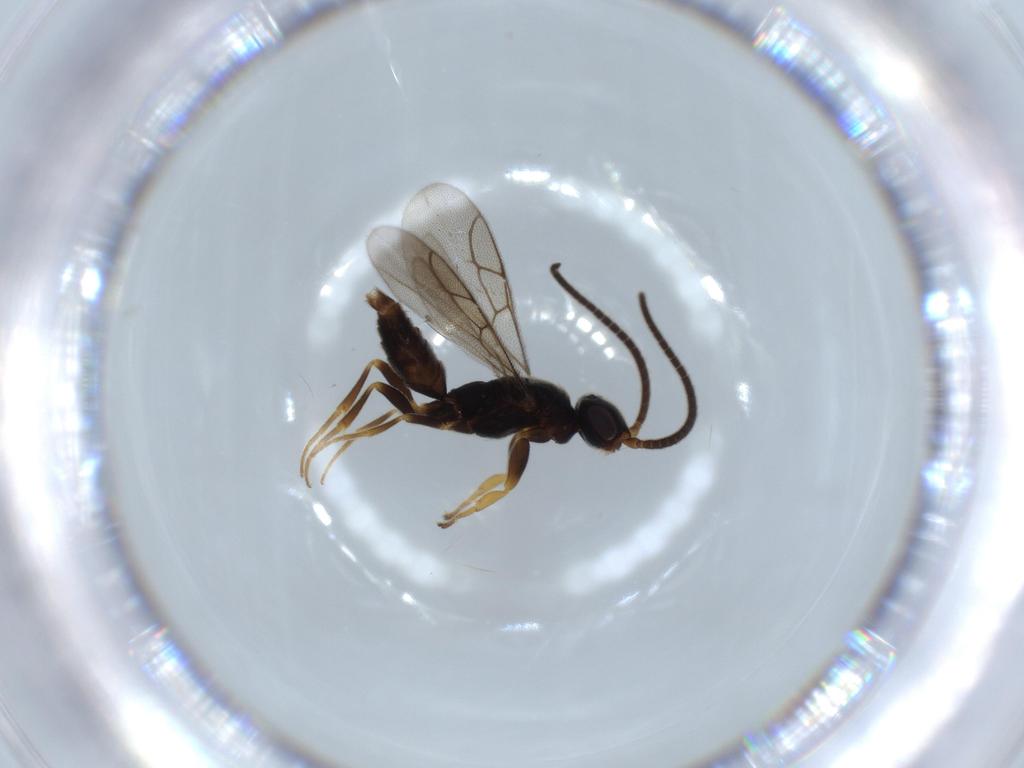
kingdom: Animalia
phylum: Arthropoda
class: Insecta
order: Hymenoptera
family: Sclerogibbidae
